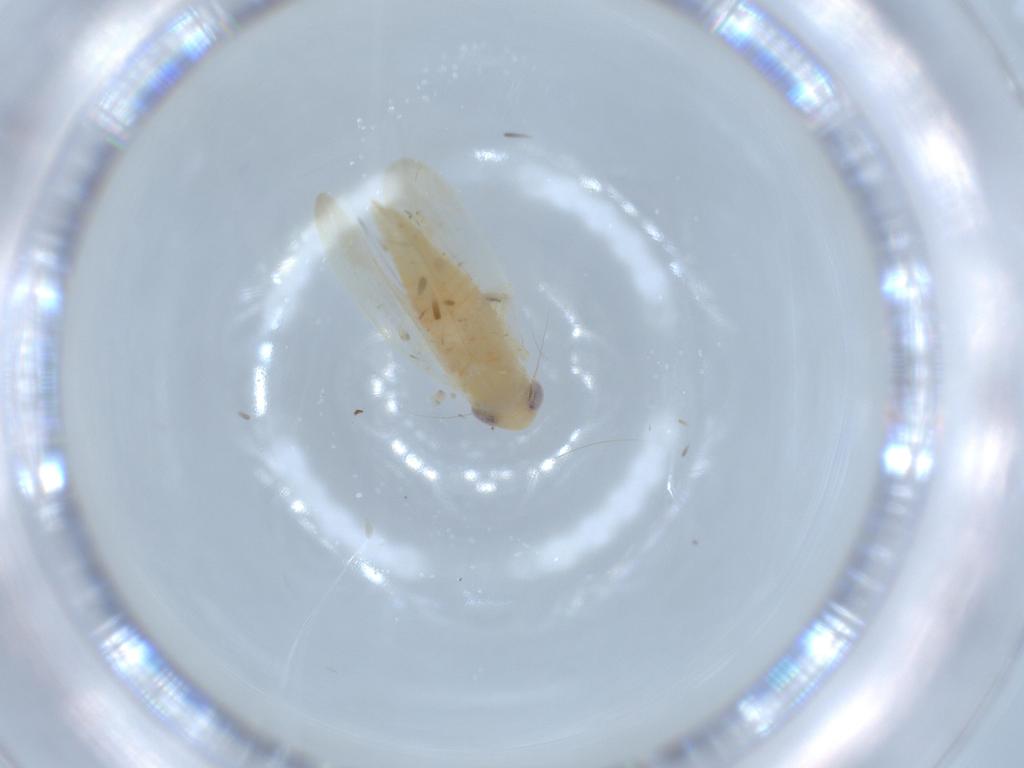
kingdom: Animalia
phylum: Arthropoda
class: Insecta
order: Hemiptera
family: Cicadellidae
